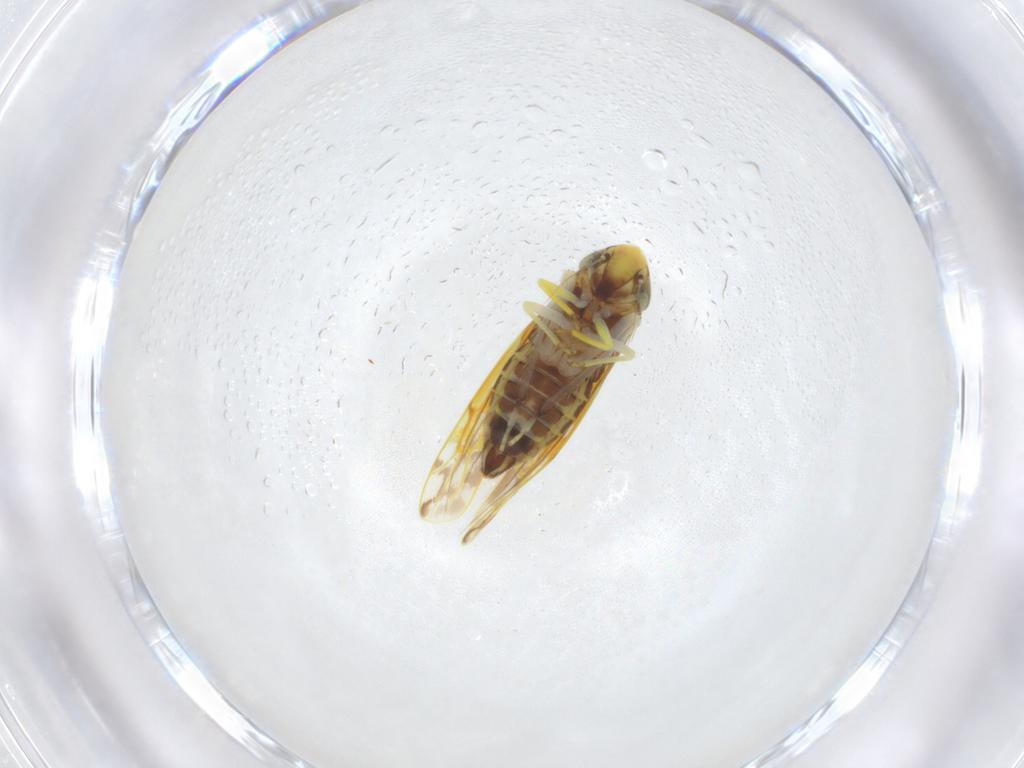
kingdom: Animalia
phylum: Arthropoda
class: Insecta
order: Hemiptera
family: Cicadellidae
